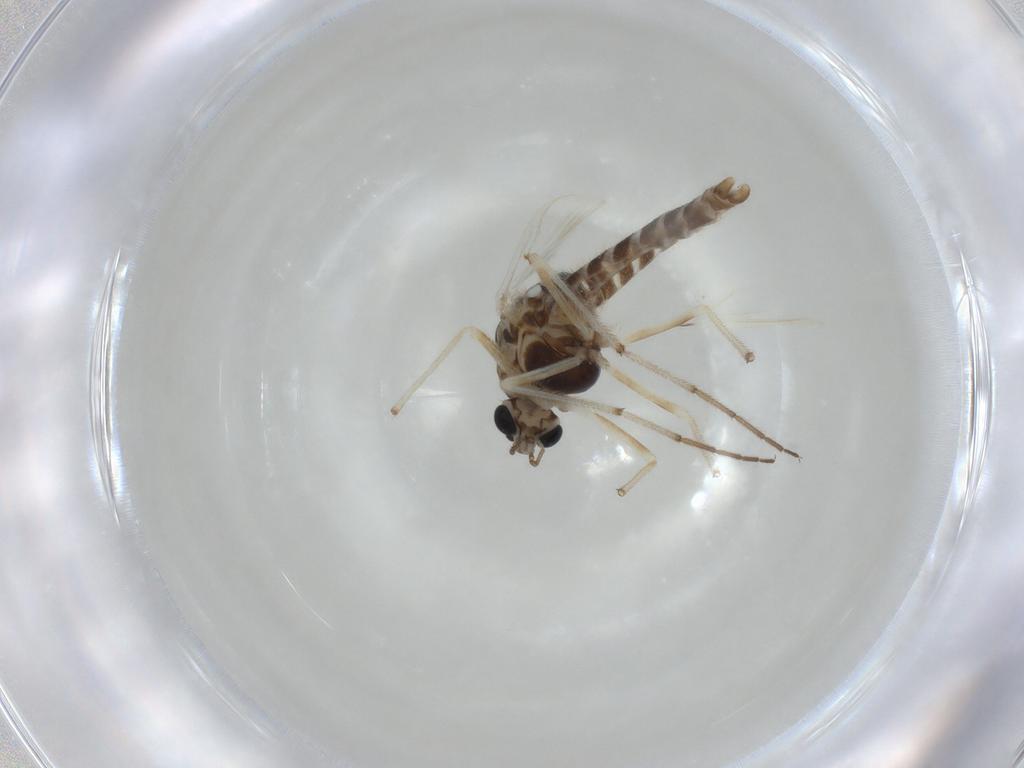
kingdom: Animalia
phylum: Arthropoda
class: Insecta
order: Diptera
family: Chironomidae
